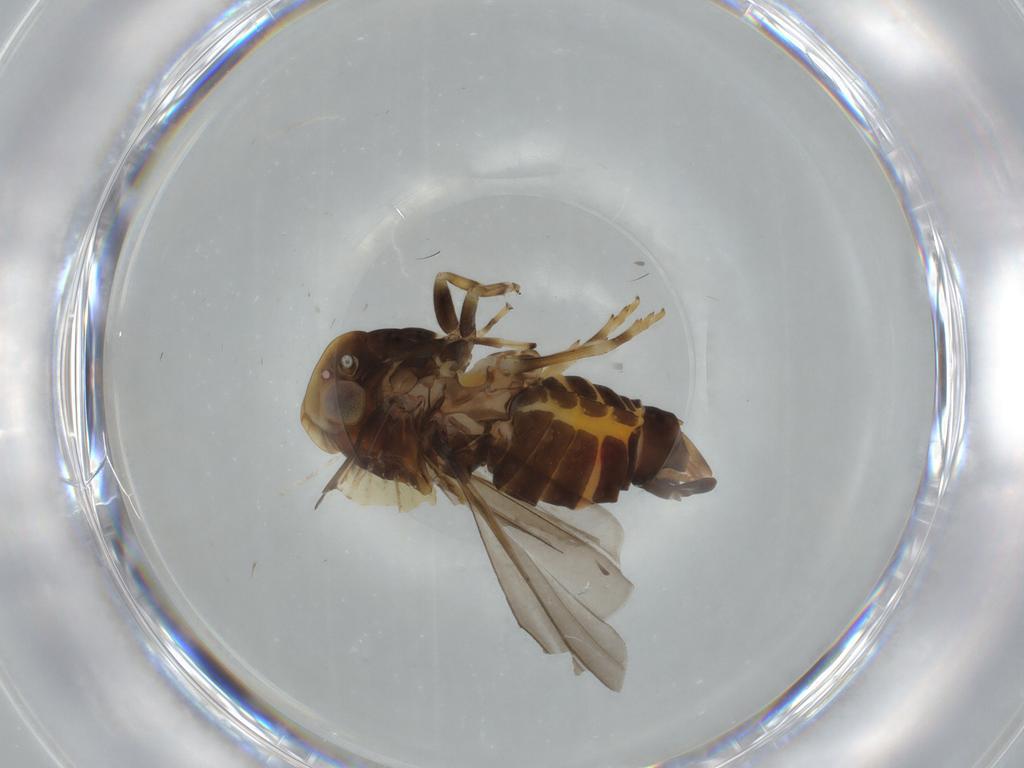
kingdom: Animalia
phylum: Arthropoda
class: Insecta
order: Hemiptera
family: Cixiidae
